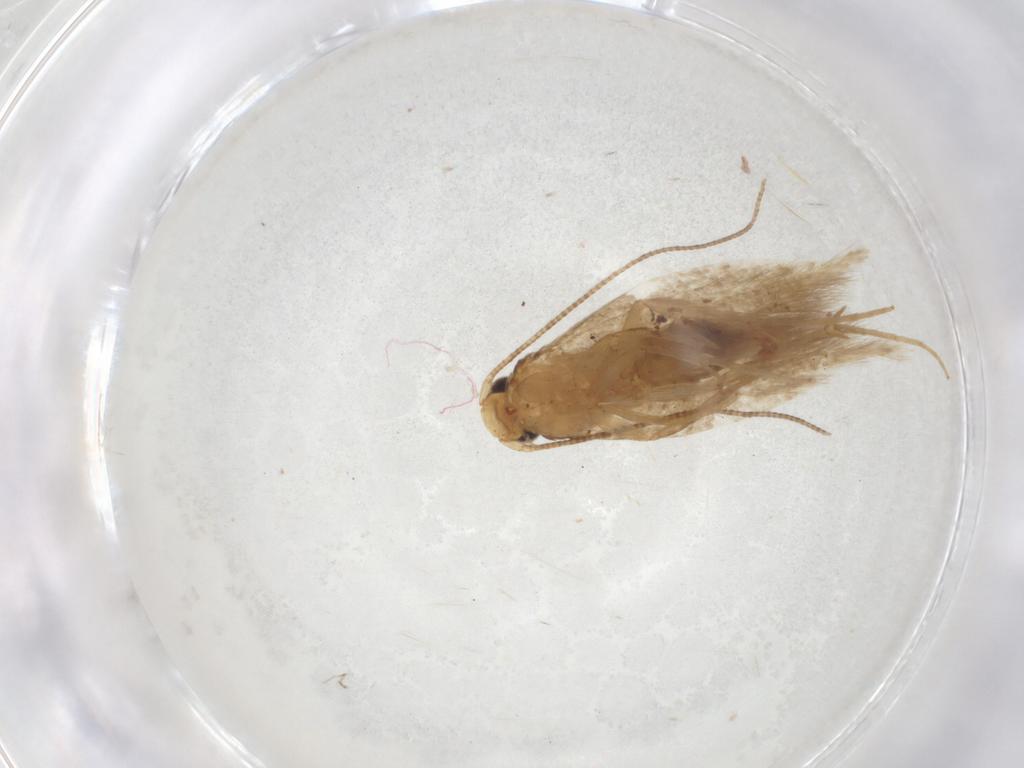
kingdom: Animalia
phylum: Arthropoda
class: Insecta
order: Lepidoptera
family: Tineidae
